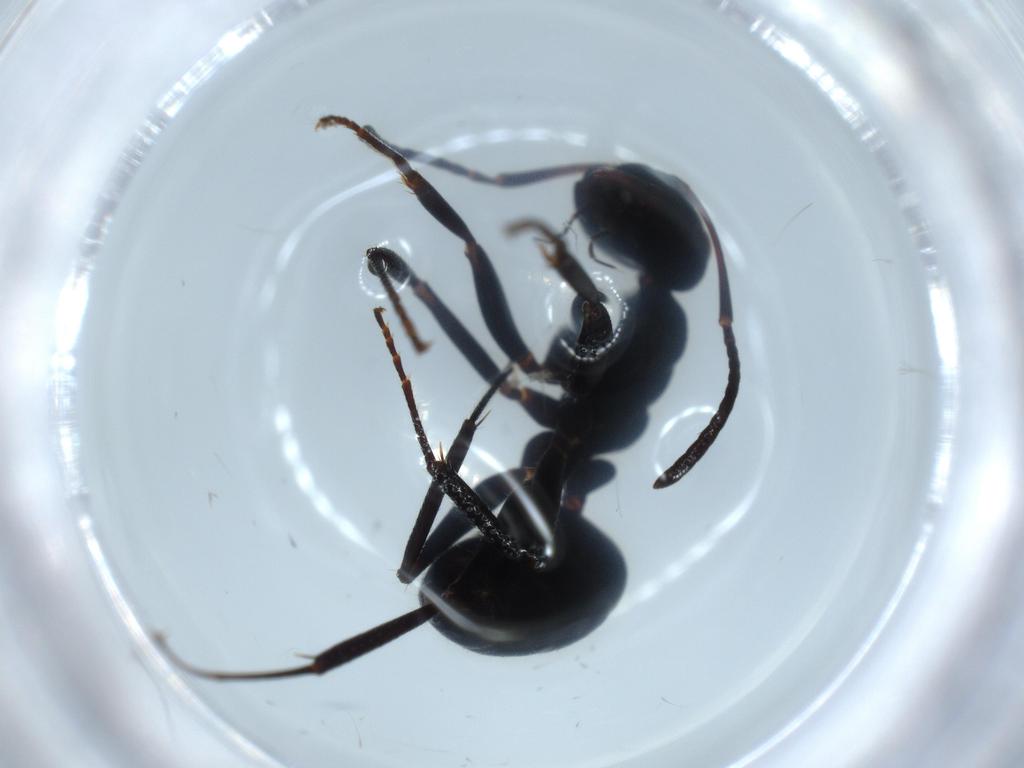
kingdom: Animalia
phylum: Arthropoda
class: Insecta
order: Hymenoptera
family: Formicidae
